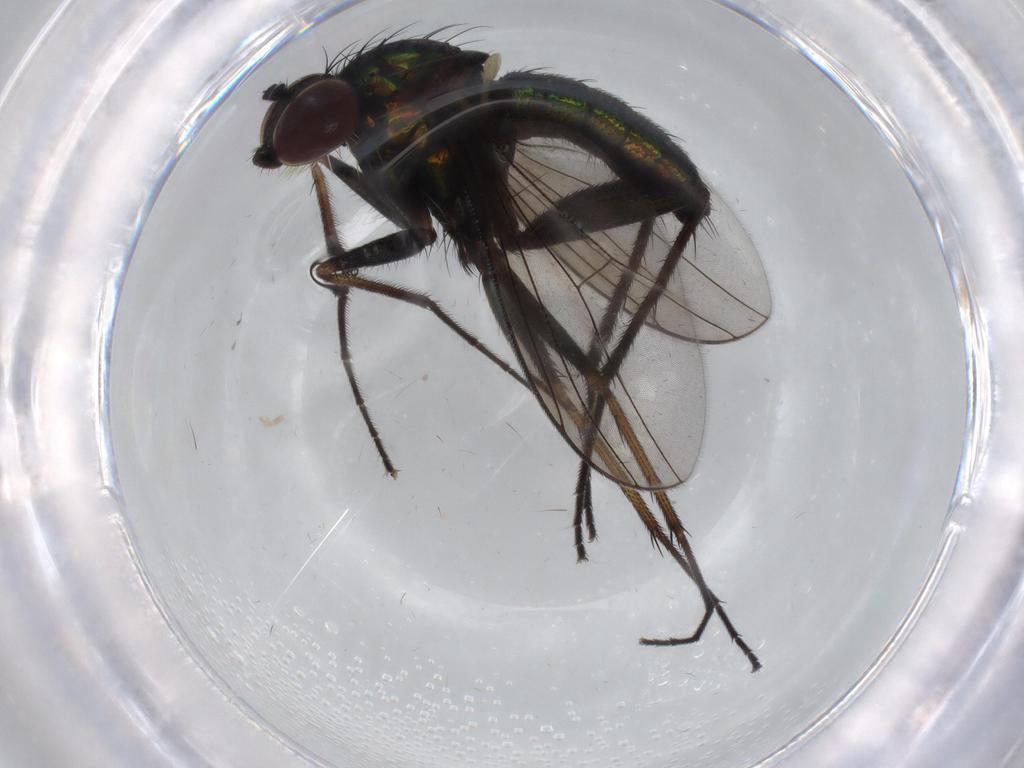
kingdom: Animalia
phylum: Arthropoda
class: Insecta
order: Diptera
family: Dolichopodidae
